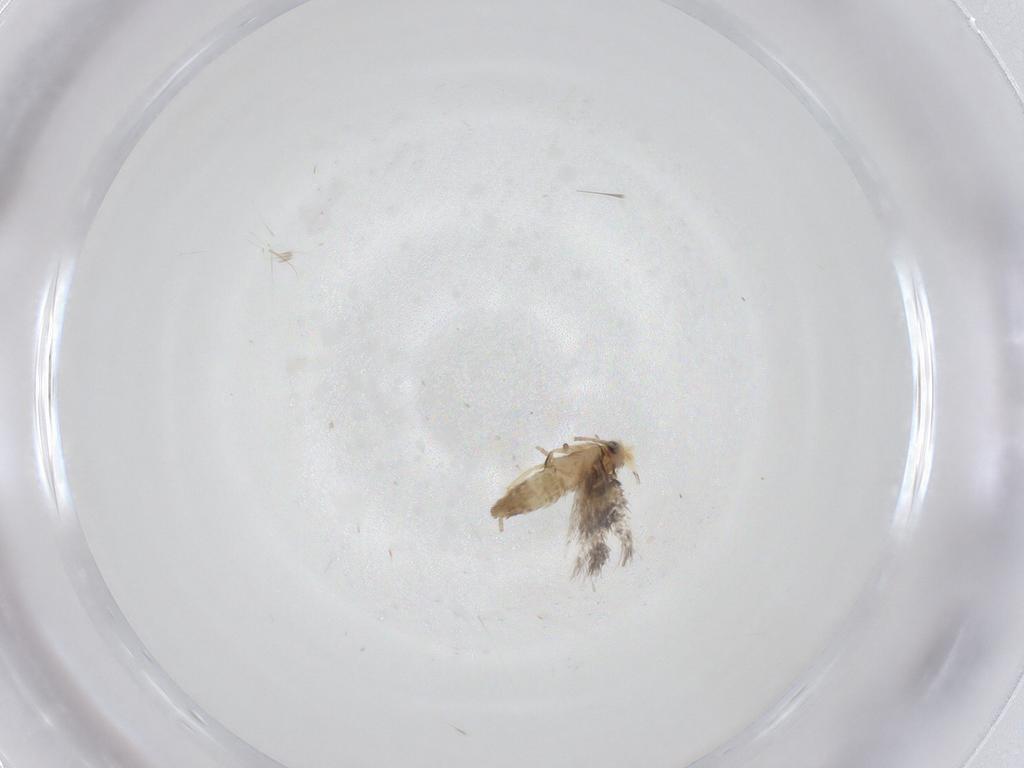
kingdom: Animalia
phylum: Arthropoda
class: Insecta
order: Lepidoptera
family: Nepticulidae
